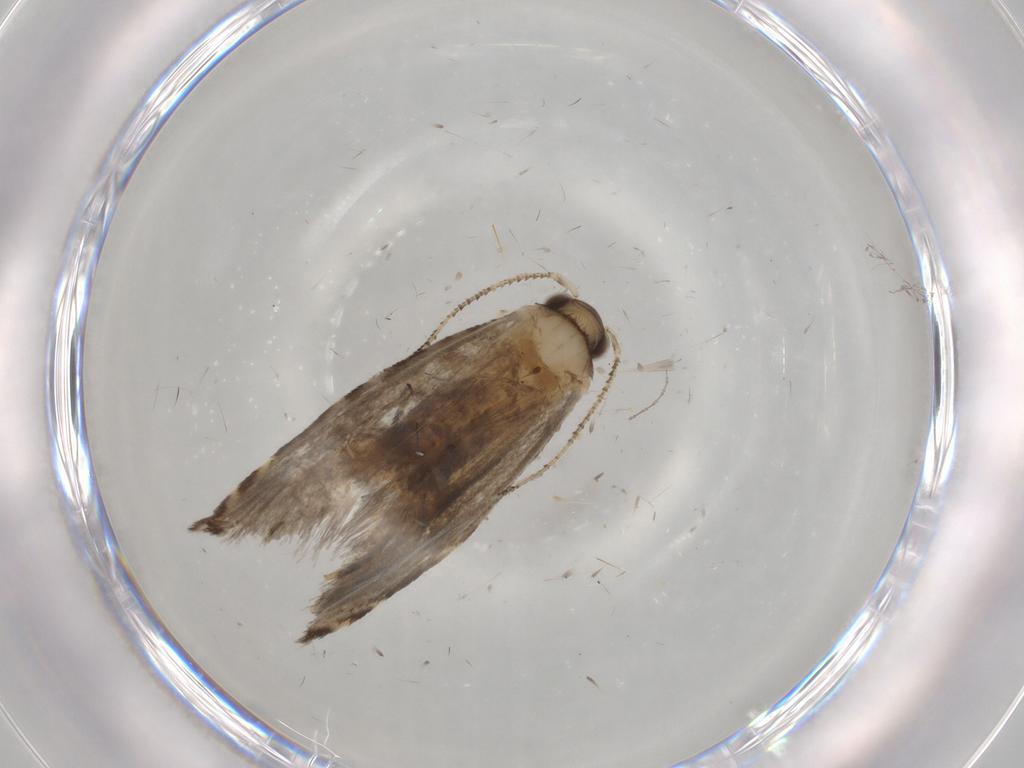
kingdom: Animalia
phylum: Arthropoda
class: Insecta
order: Lepidoptera
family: Tineidae
